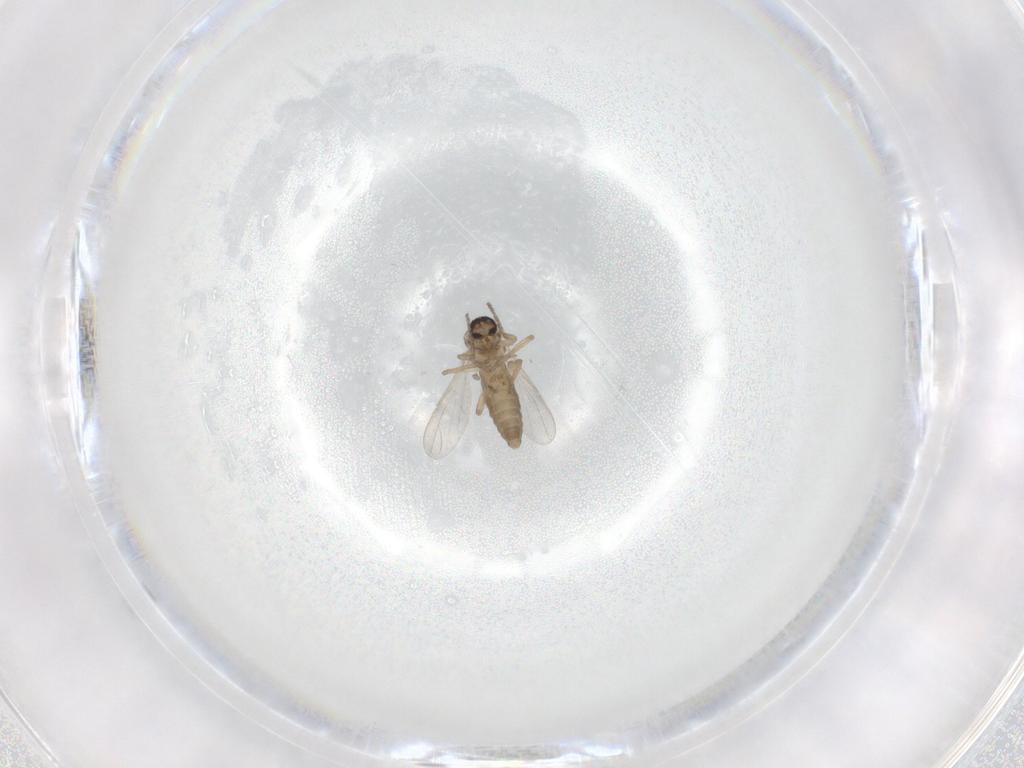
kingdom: Animalia
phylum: Arthropoda
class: Insecta
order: Diptera
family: Ceratopogonidae
